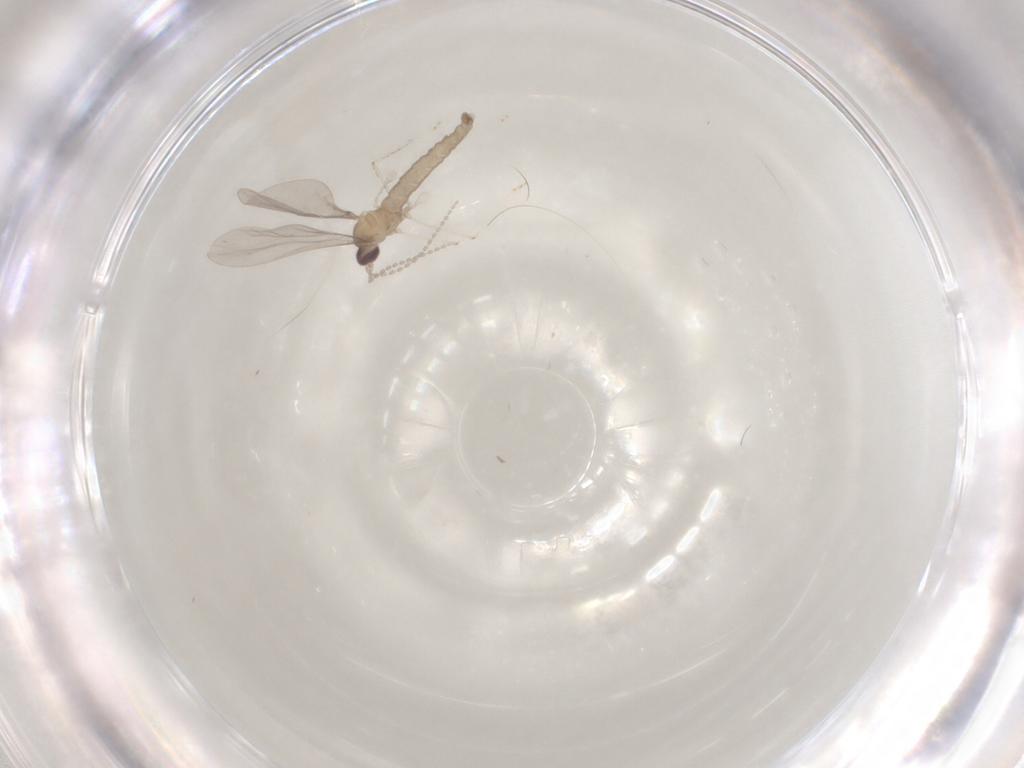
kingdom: Animalia
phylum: Arthropoda
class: Insecta
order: Diptera
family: Cecidomyiidae
